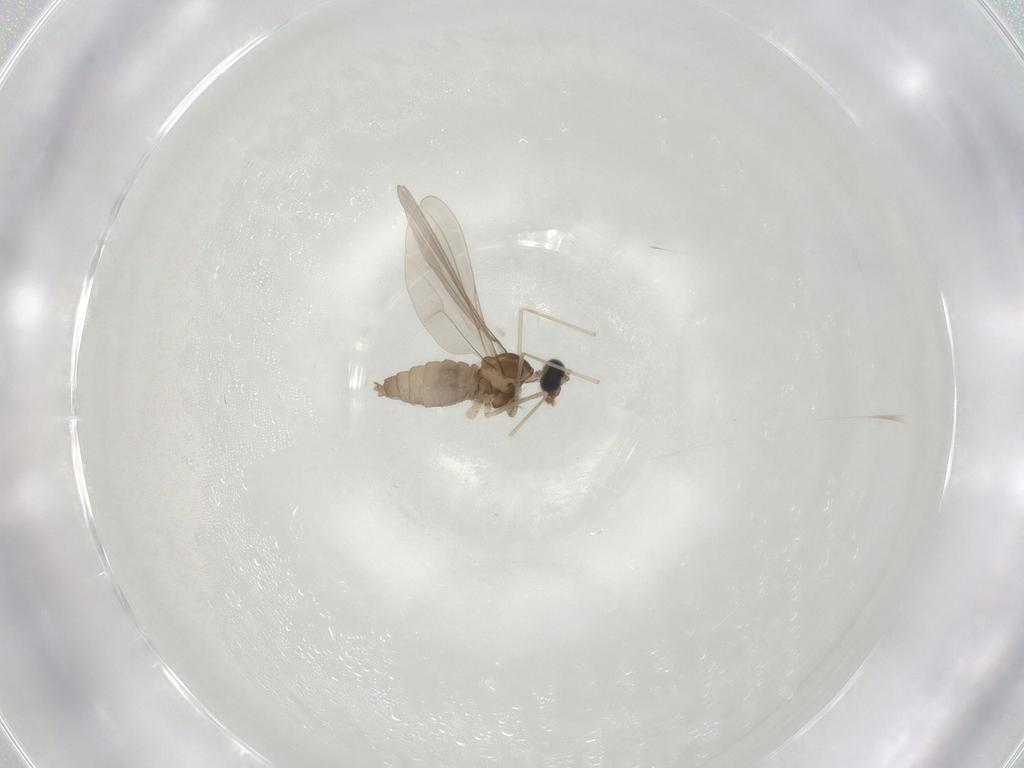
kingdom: Animalia
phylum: Arthropoda
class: Insecta
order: Diptera
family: Cecidomyiidae
